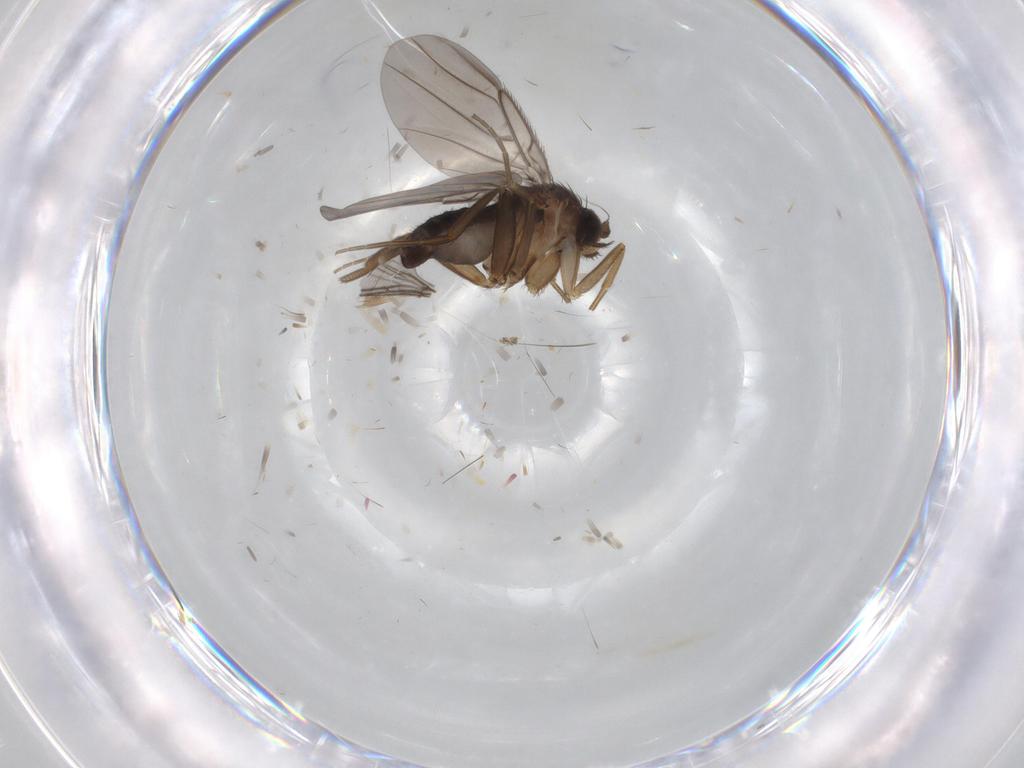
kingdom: Animalia
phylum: Arthropoda
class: Insecta
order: Diptera
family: Phoridae
